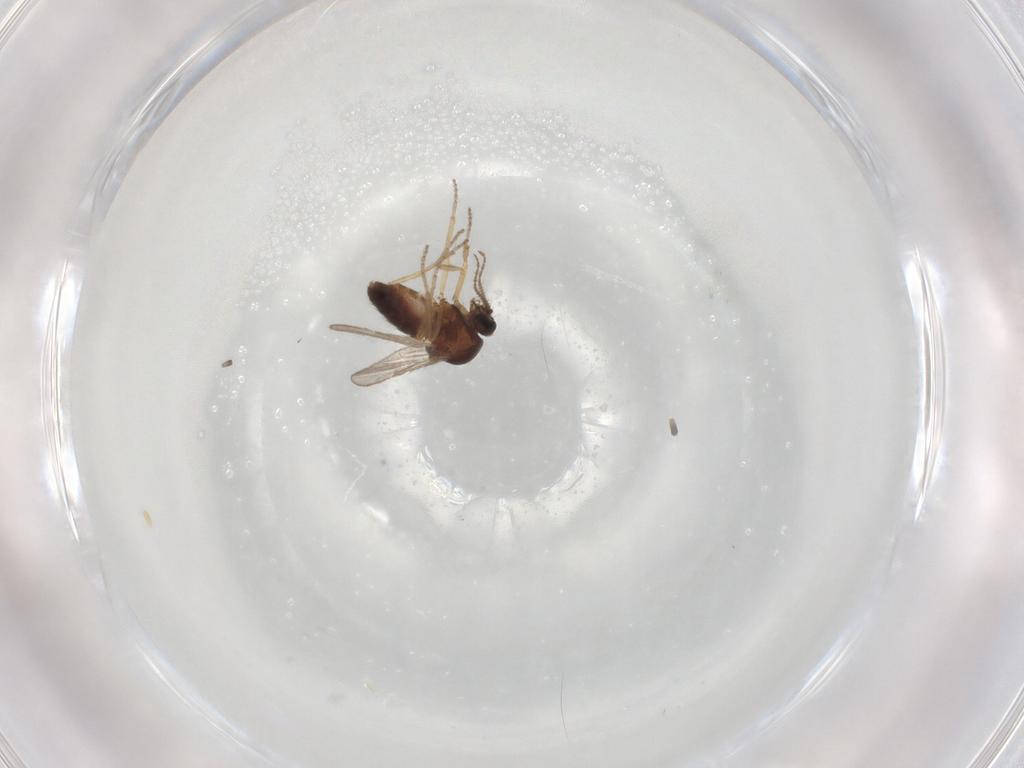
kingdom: Animalia
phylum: Arthropoda
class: Insecta
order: Diptera
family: Ceratopogonidae
